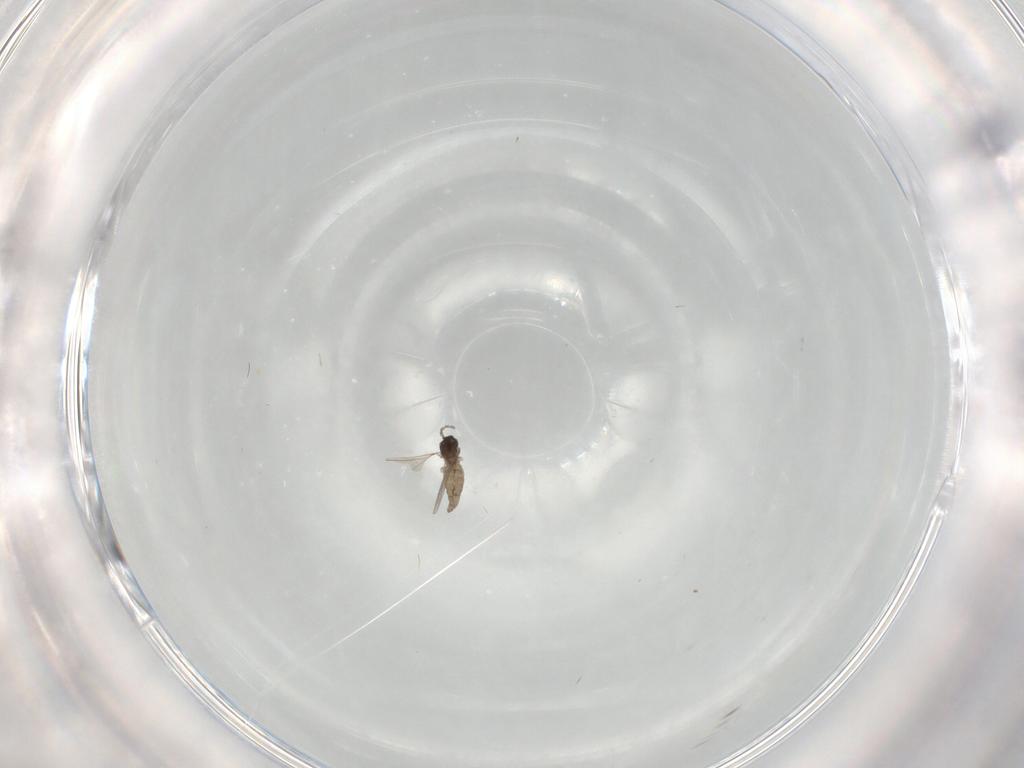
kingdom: Animalia
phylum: Arthropoda
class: Insecta
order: Diptera
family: Cecidomyiidae
